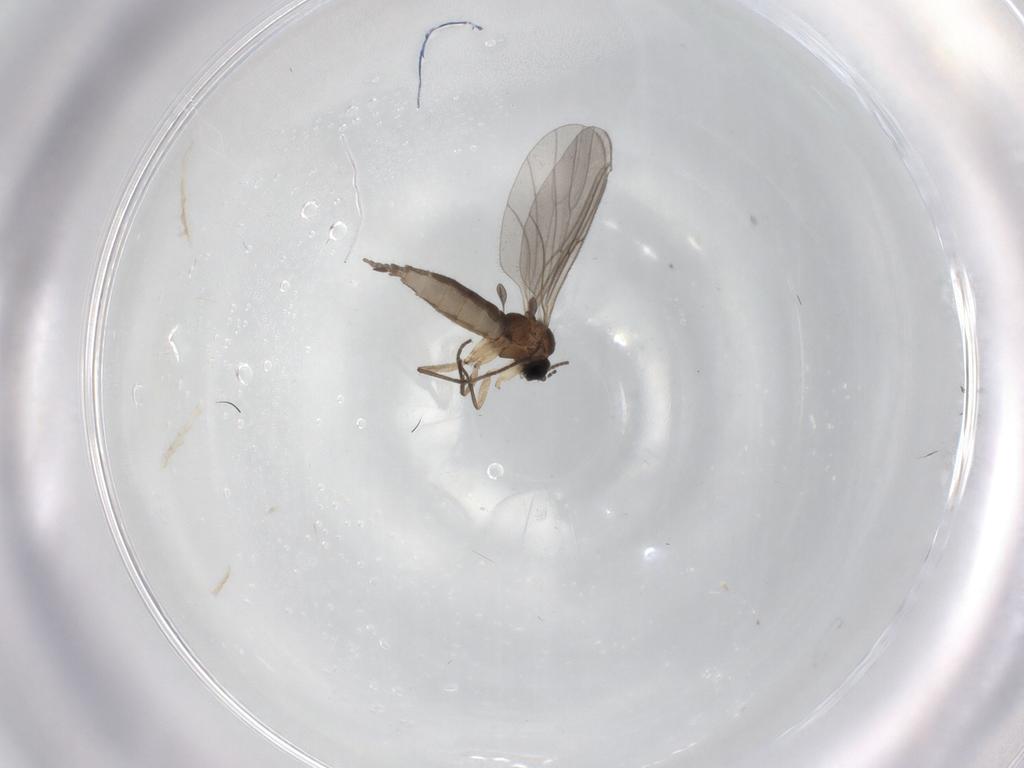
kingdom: Animalia
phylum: Arthropoda
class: Insecta
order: Diptera
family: Sciaridae
